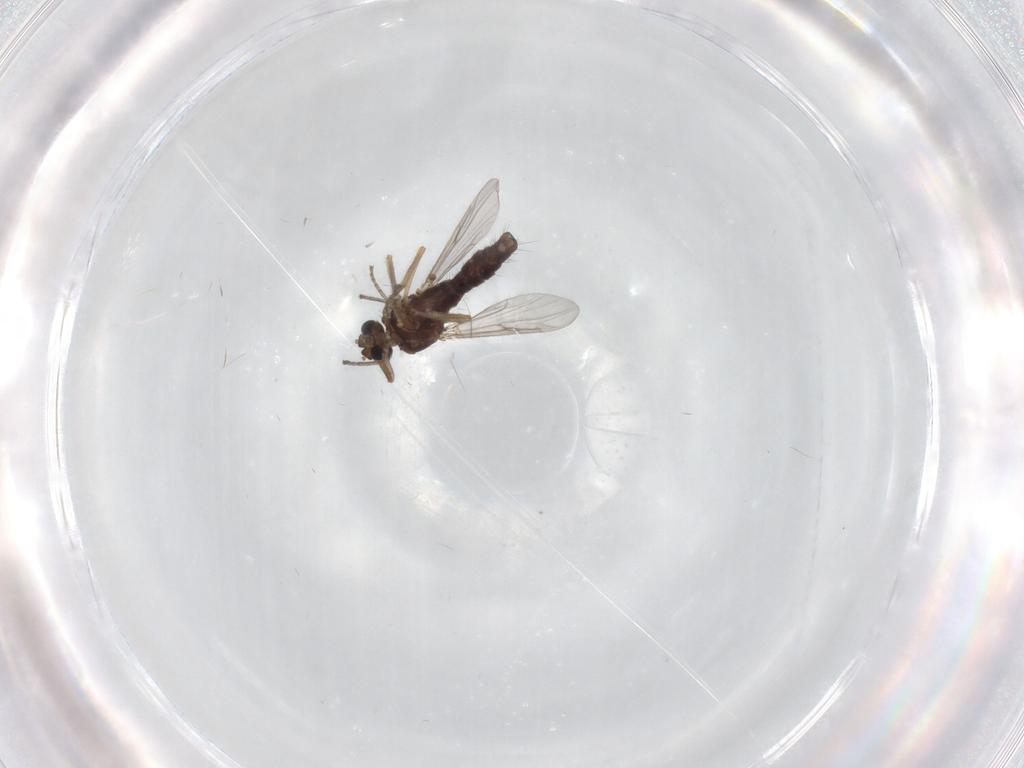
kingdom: Animalia
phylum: Arthropoda
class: Insecta
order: Diptera
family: Ceratopogonidae
